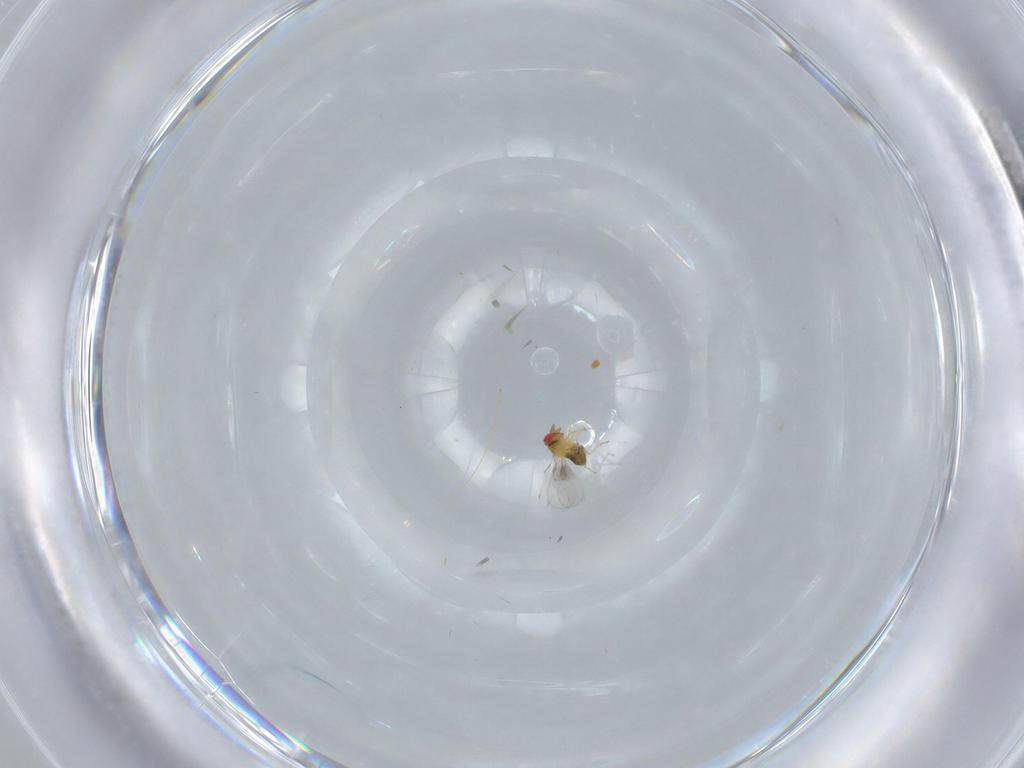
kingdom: Animalia
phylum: Arthropoda
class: Insecta
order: Hymenoptera
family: Trichogrammatidae
